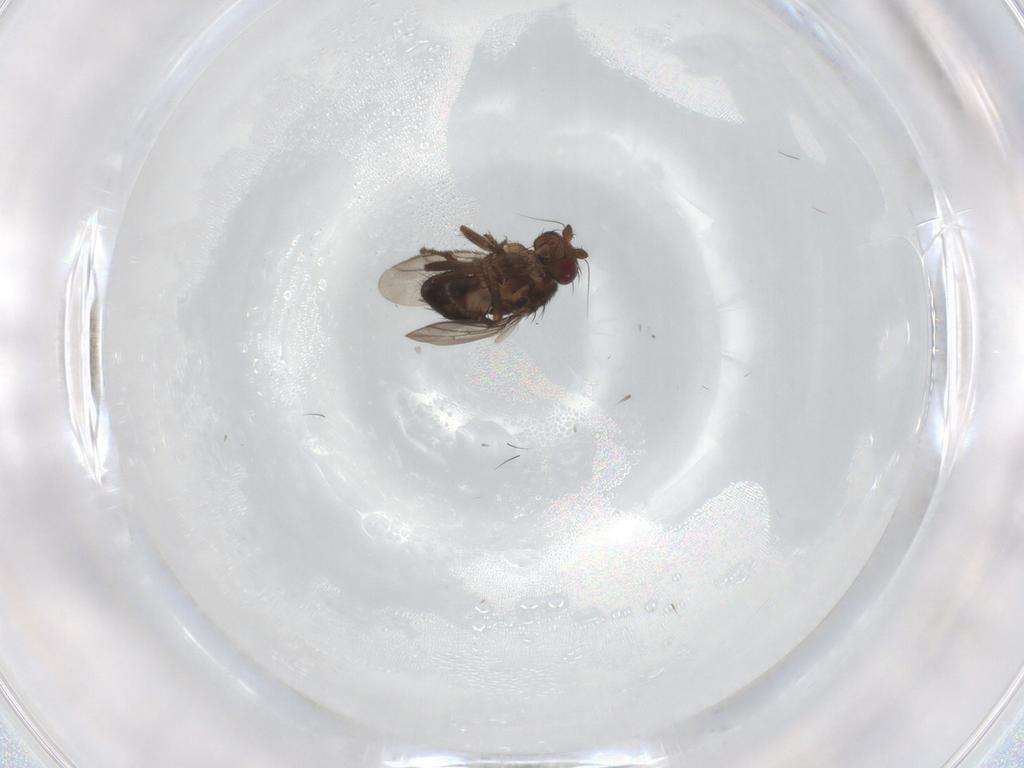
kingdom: Animalia
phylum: Arthropoda
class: Insecta
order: Diptera
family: Sphaeroceridae
